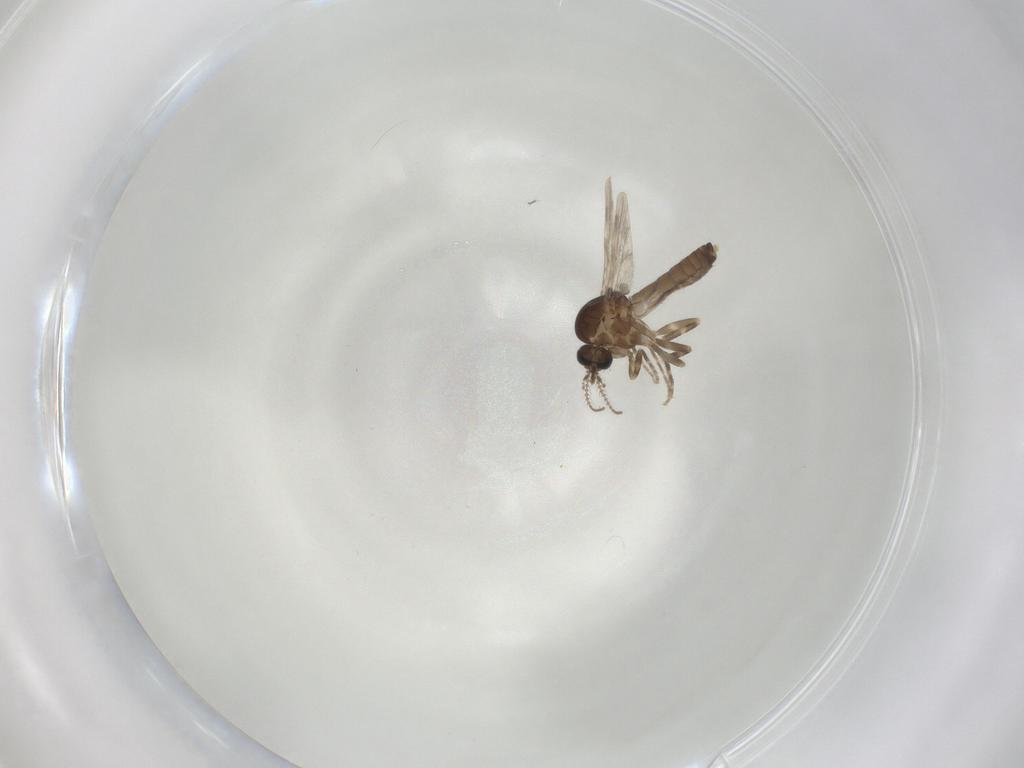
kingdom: Animalia
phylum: Arthropoda
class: Insecta
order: Diptera
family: Ceratopogonidae
